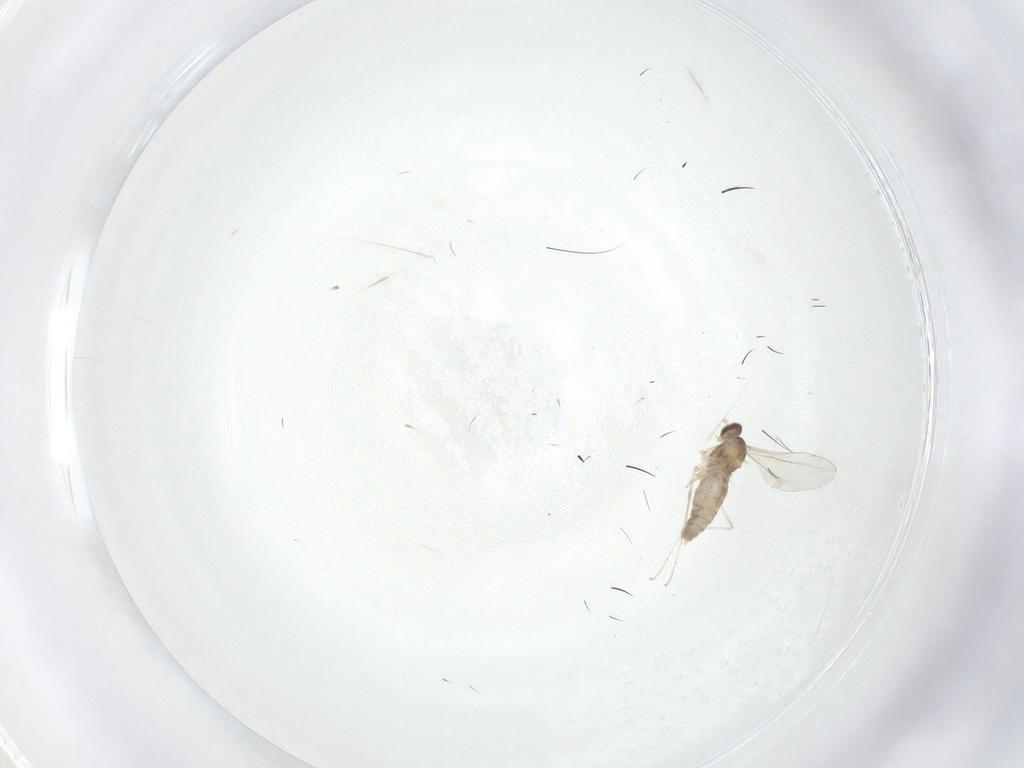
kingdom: Animalia
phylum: Arthropoda
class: Insecta
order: Diptera
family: Cecidomyiidae
